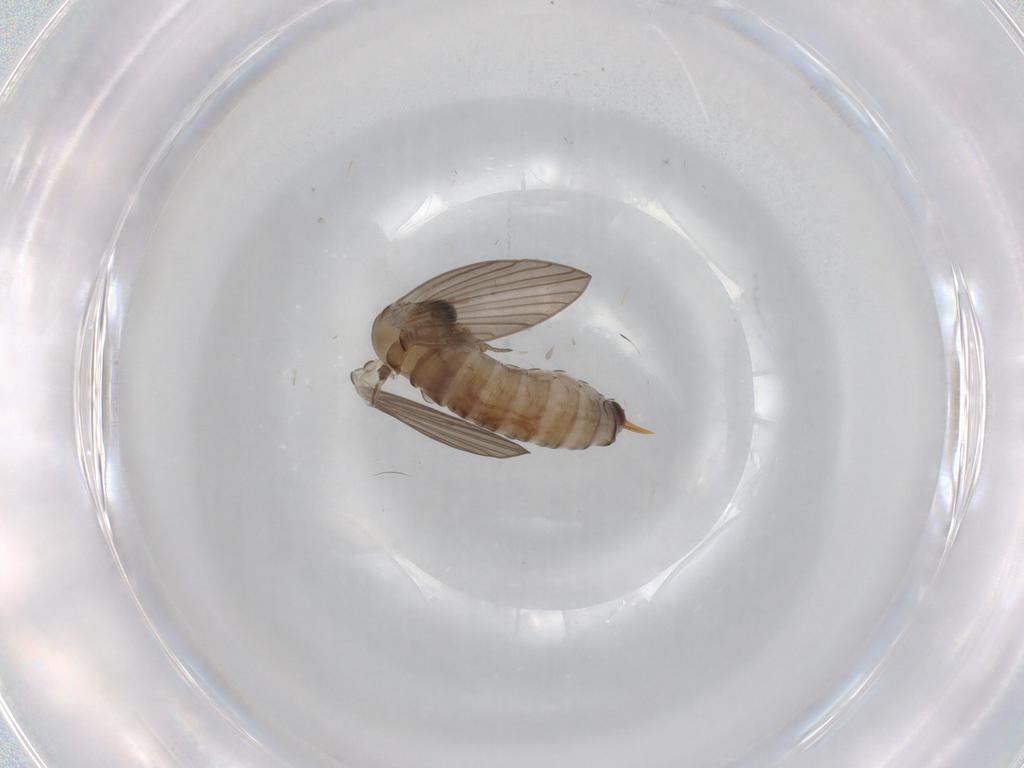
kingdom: Animalia
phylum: Arthropoda
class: Insecta
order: Diptera
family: Psychodidae
